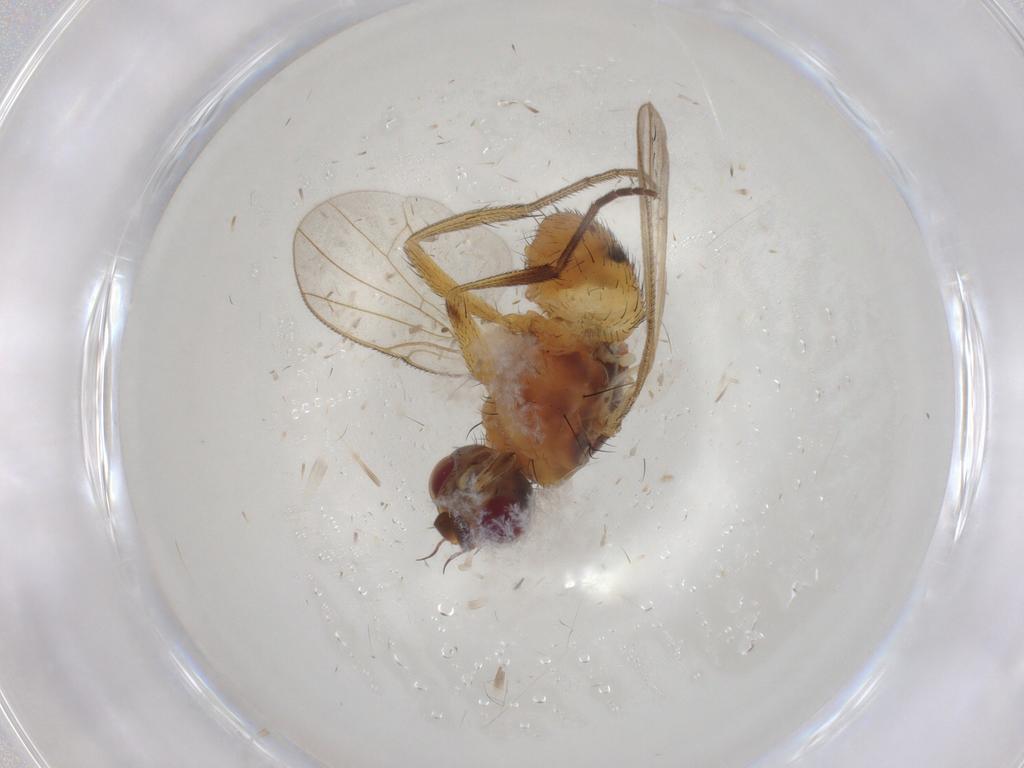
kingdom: Animalia
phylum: Arthropoda
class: Insecta
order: Diptera
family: Muscidae
